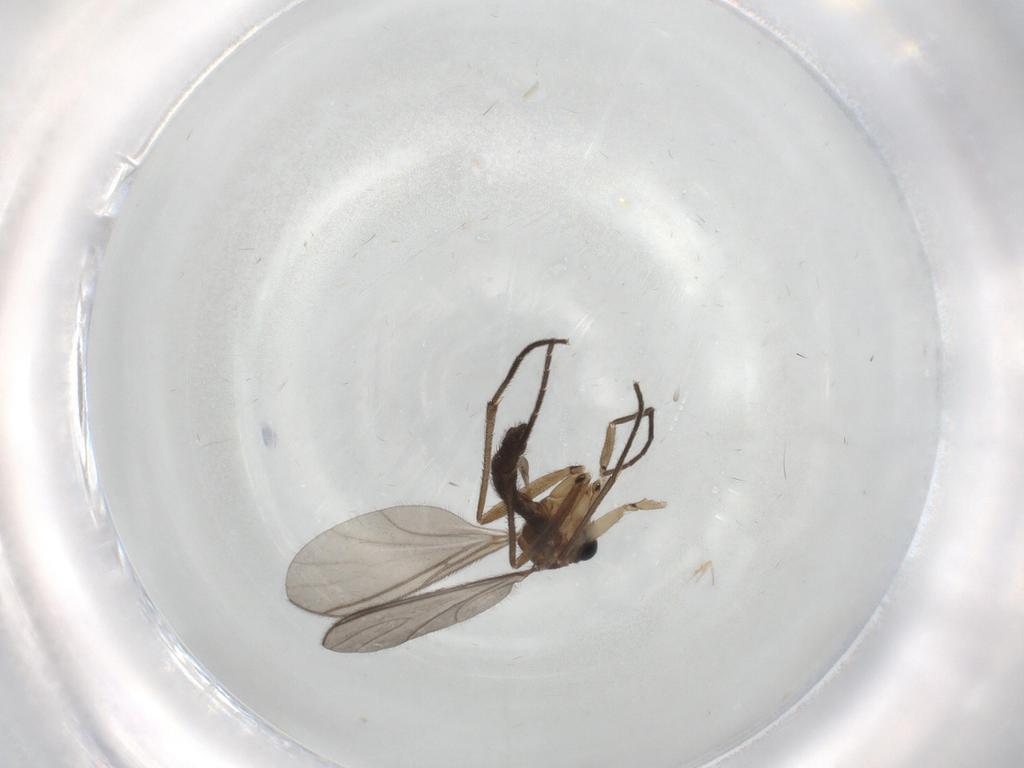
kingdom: Animalia
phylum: Arthropoda
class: Insecta
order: Diptera
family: Sciaridae
